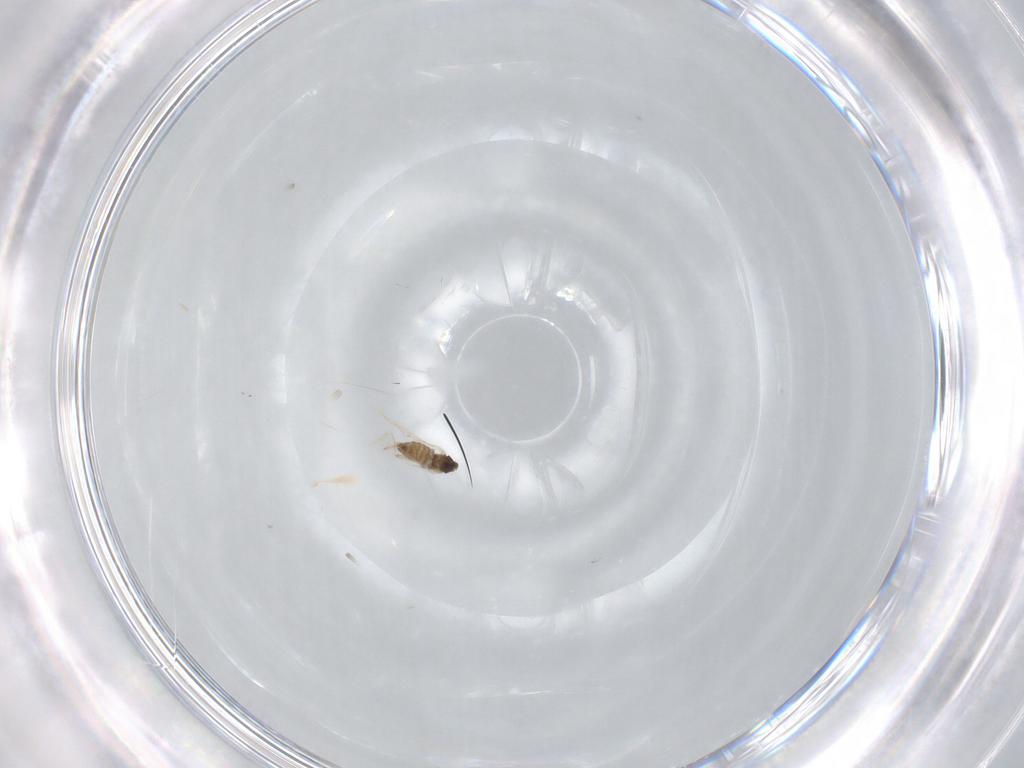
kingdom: Animalia
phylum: Arthropoda
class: Insecta
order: Diptera
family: Cecidomyiidae
